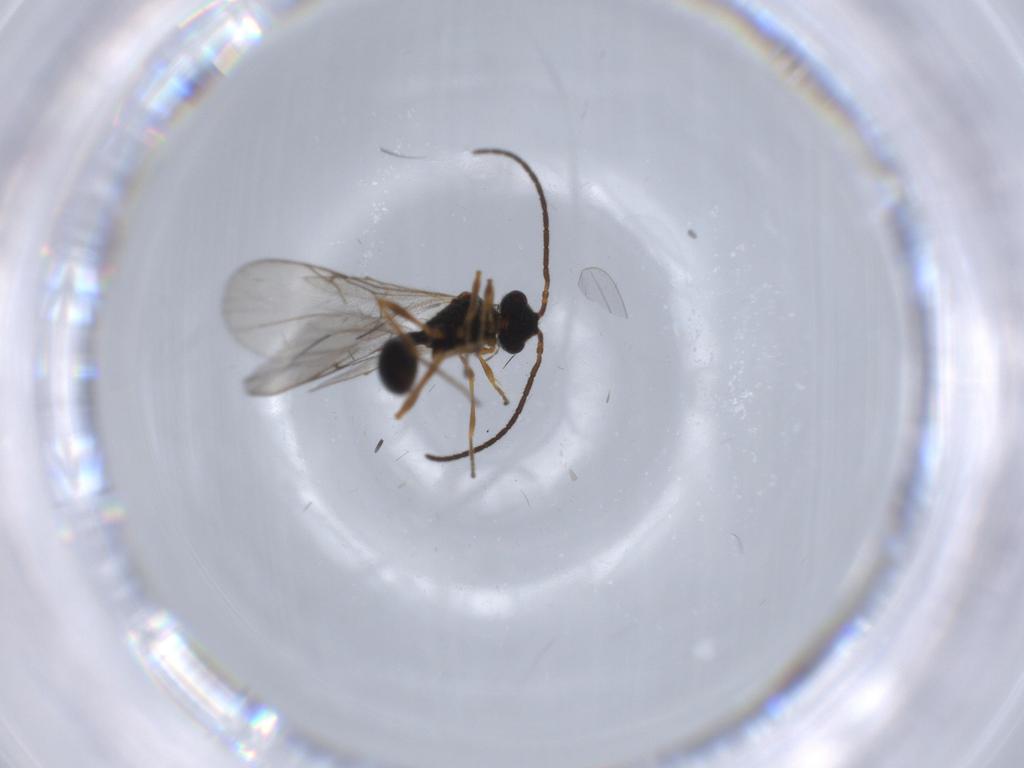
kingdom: Animalia
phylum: Arthropoda
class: Insecta
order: Hymenoptera
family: Diapriidae
